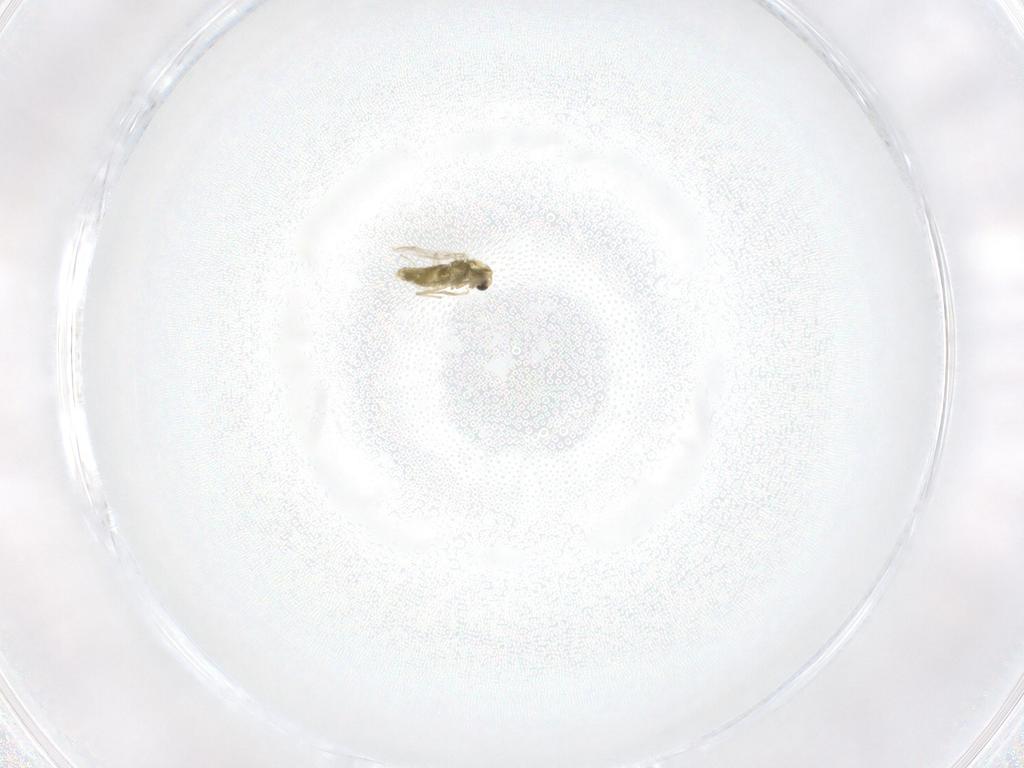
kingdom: Animalia
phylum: Arthropoda
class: Insecta
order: Diptera
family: Chironomidae
